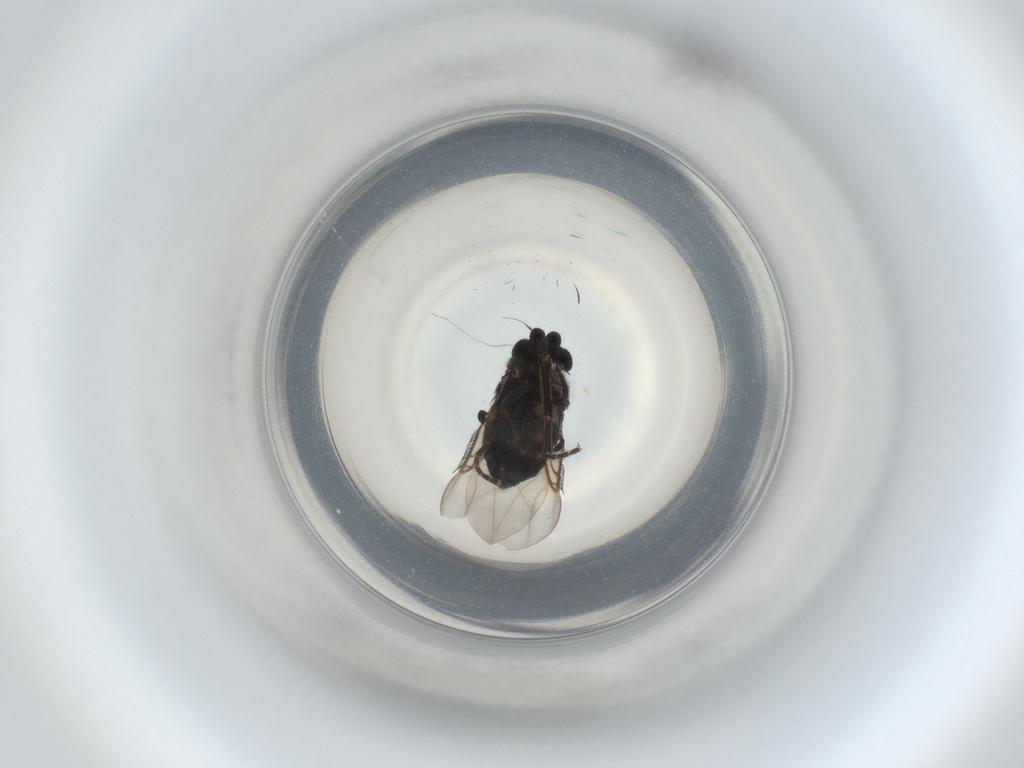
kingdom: Animalia
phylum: Arthropoda
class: Insecta
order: Diptera
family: Phoridae
